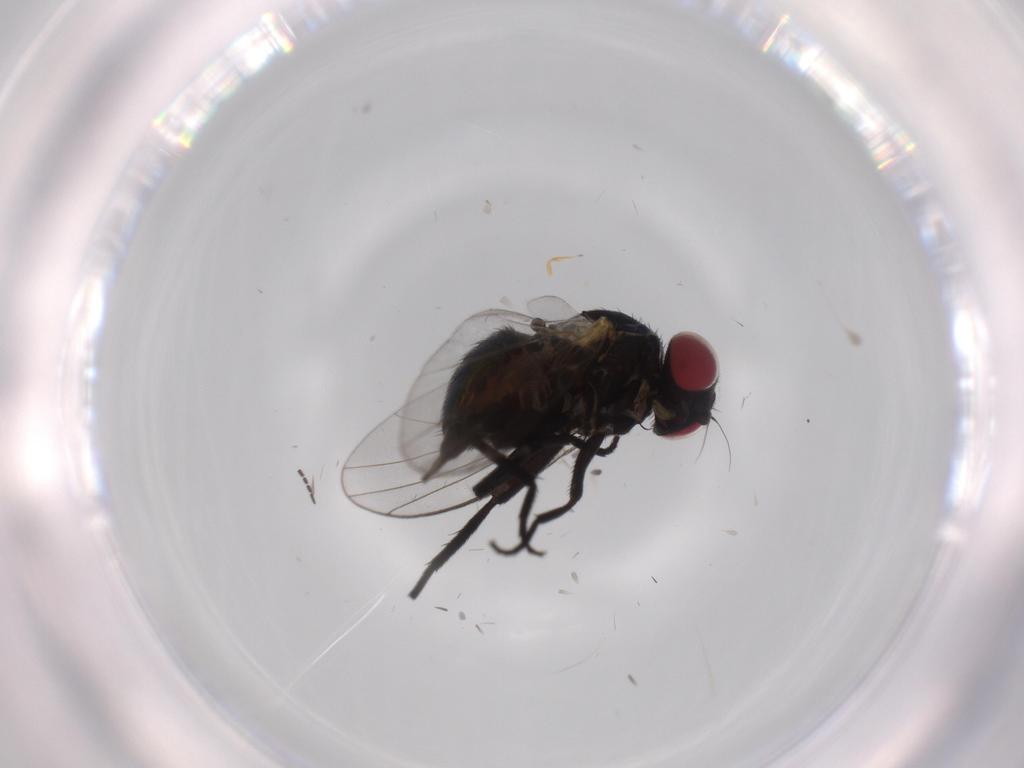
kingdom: Animalia
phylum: Arthropoda
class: Insecta
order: Diptera
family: Sciaridae
